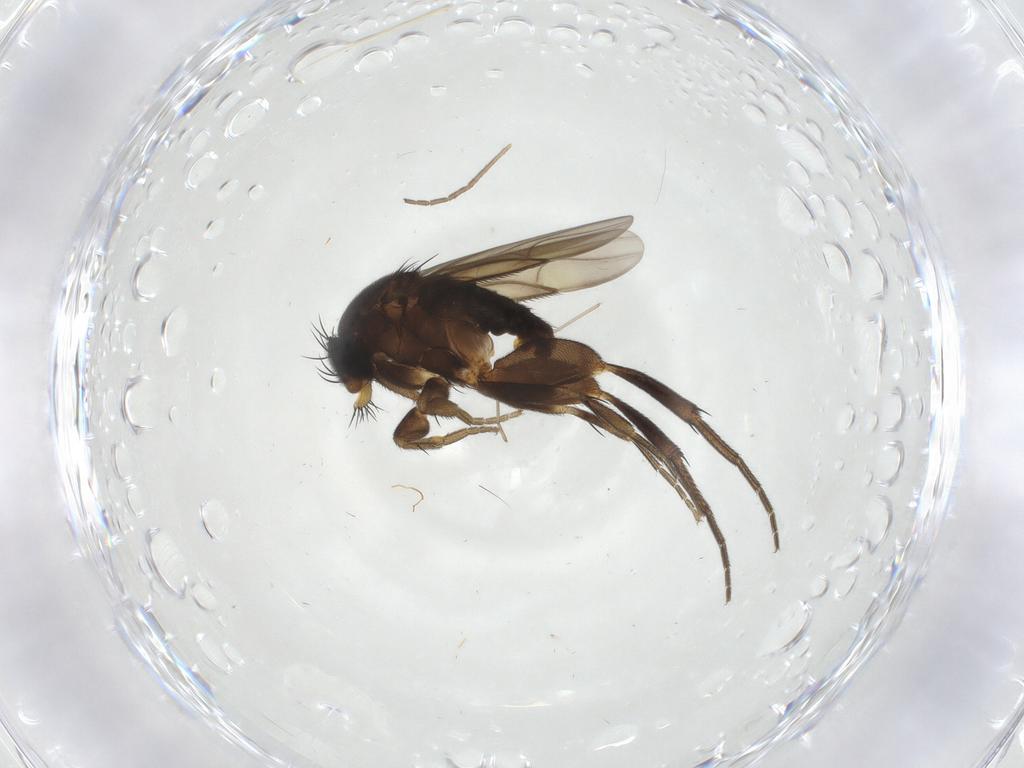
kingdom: Animalia
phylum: Arthropoda
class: Insecta
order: Diptera
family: Phoridae
